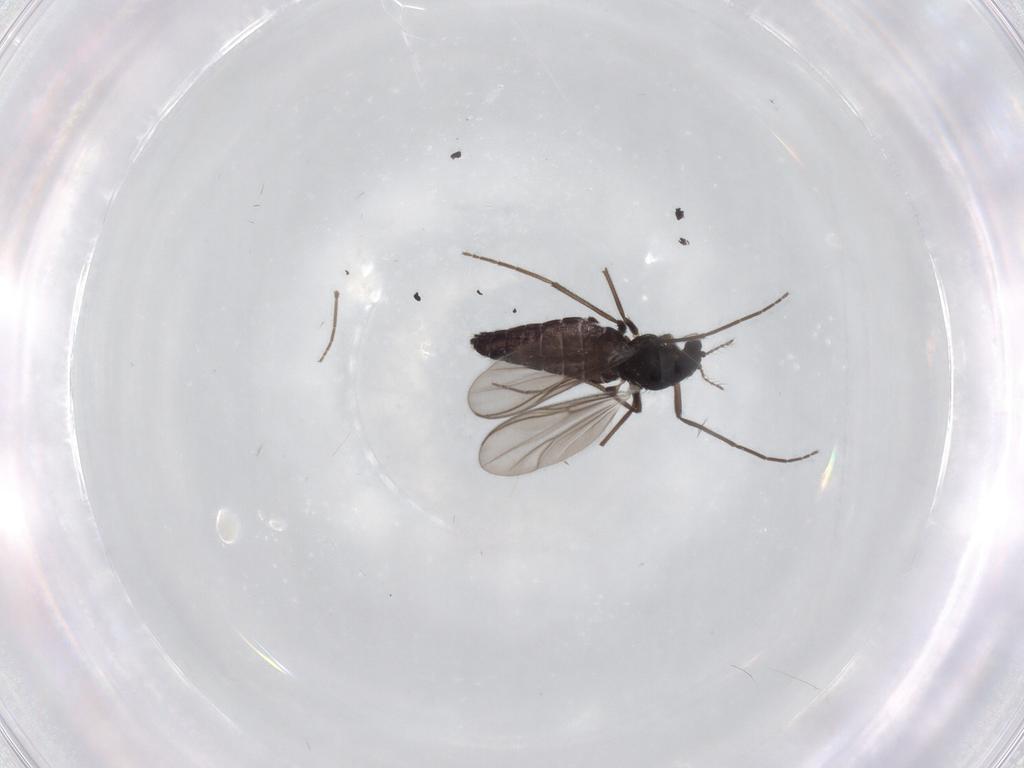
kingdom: Animalia
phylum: Arthropoda
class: Insecta
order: Diptera
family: Chironomidae
